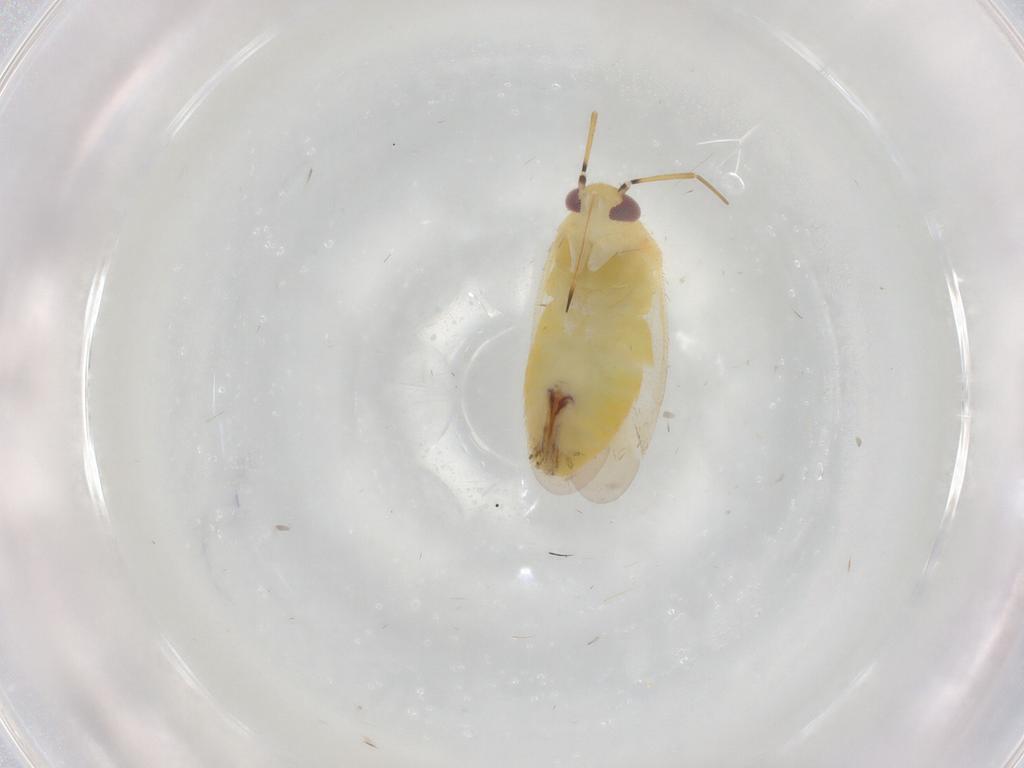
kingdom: Animalia
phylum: Arthropoda
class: Insecta
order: Hemiptera
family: Miridae
